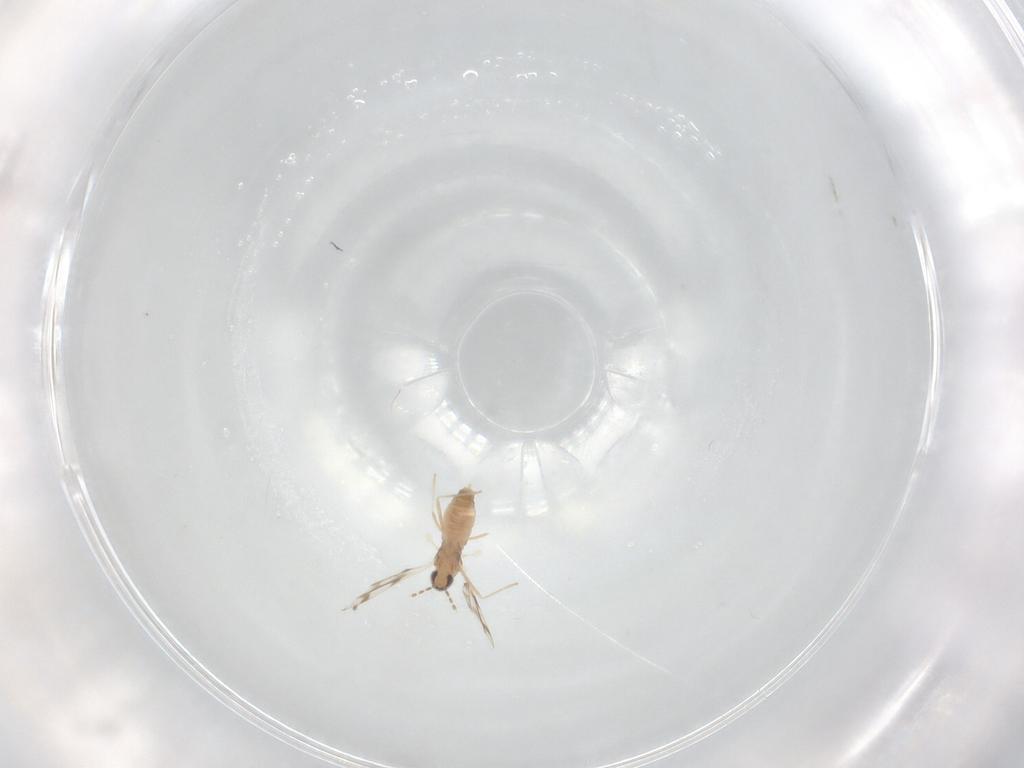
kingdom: Animalia
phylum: Arthropoda
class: Insecta
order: Diptera
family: Cecidomyiidae
